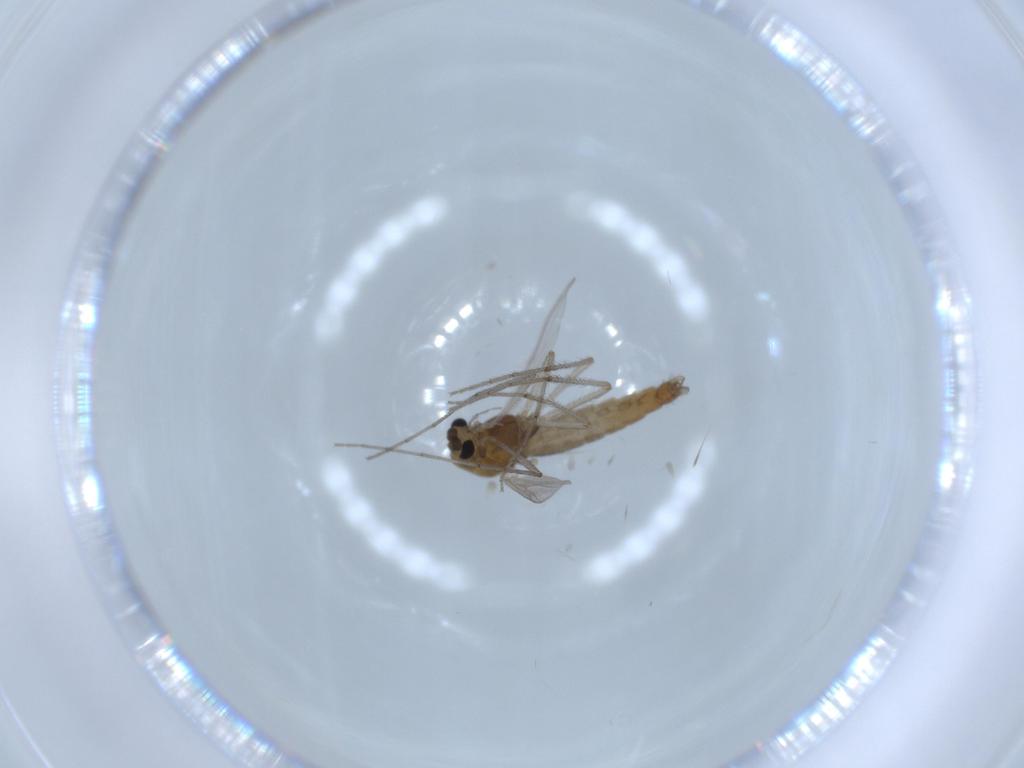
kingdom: Animalia
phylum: Arthropoda
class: Insecta
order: Diptera
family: Chironomidae
